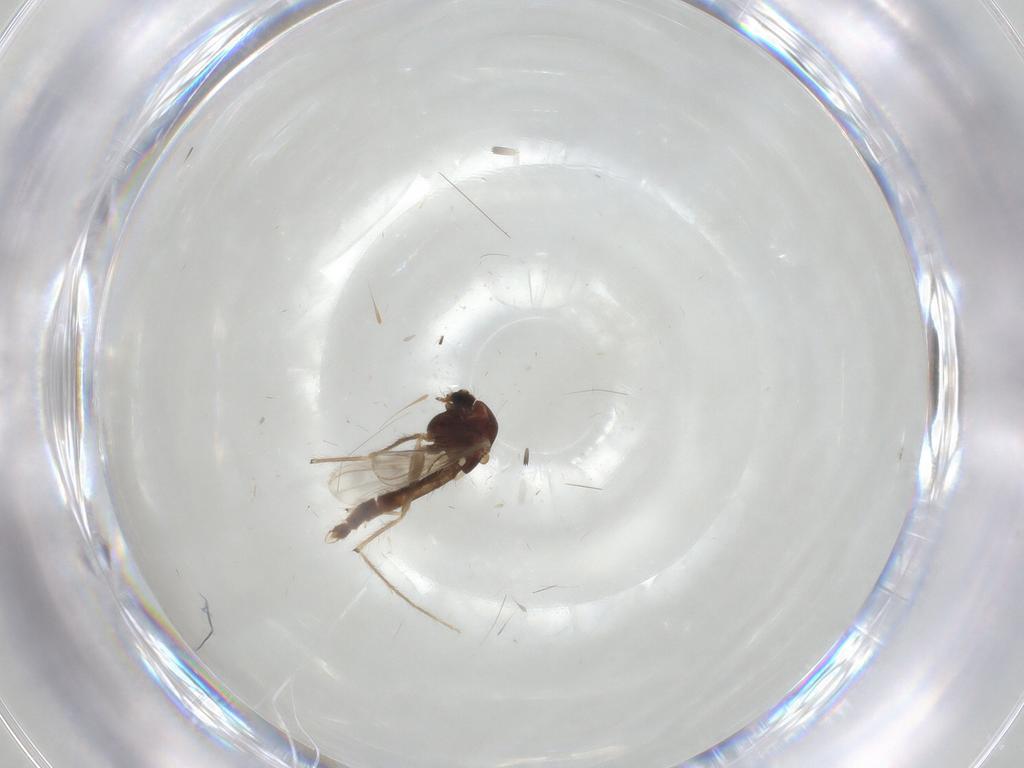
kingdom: Animalia
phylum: Arthropoda
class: Insecta
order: Diptera
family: Chironomidae
